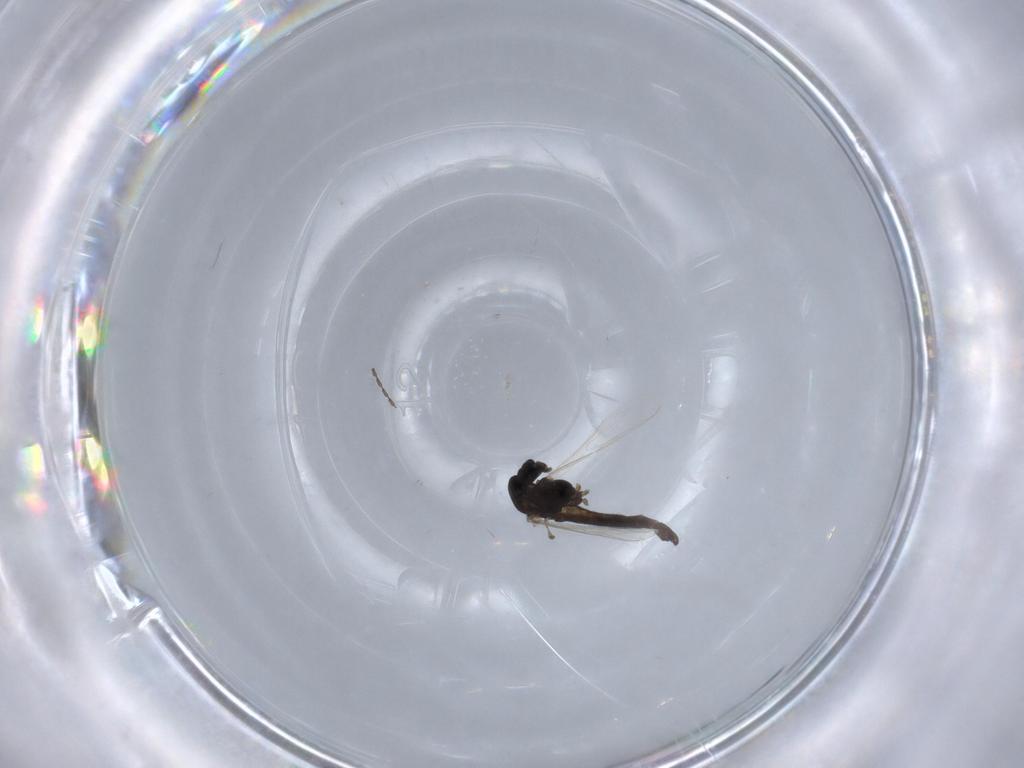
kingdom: Animalia
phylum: Arthropoda
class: Insecta
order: Diptera
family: Chironomidae
